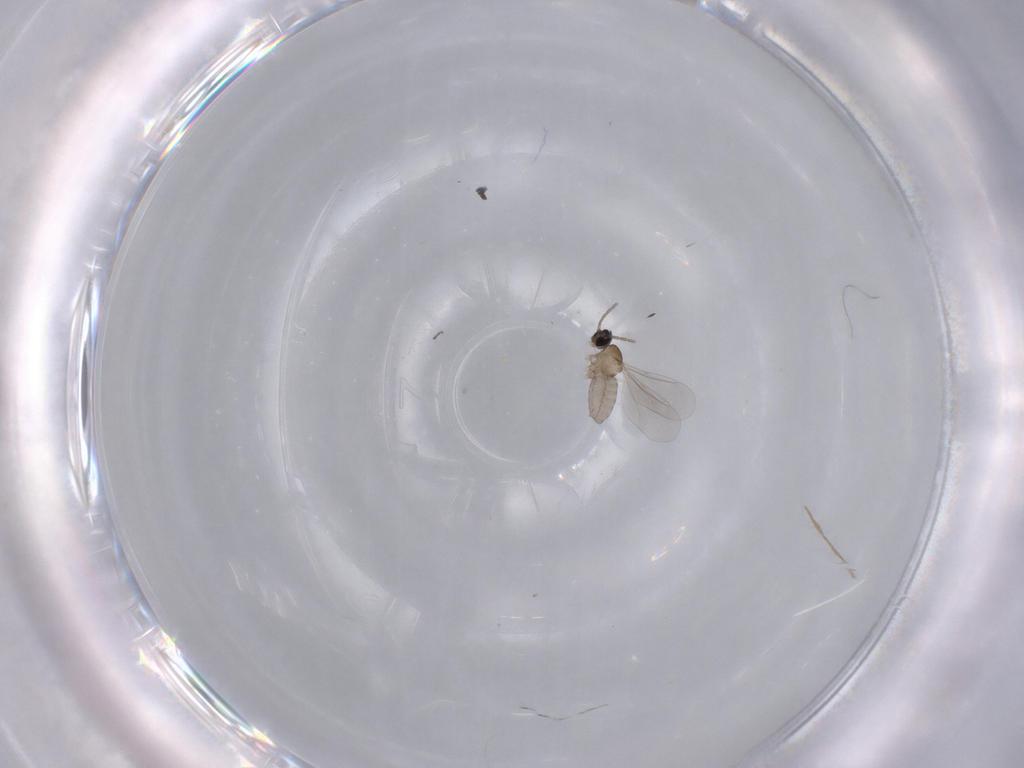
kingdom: Animalia
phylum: Arthropoda
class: Insecta
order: Diptera
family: Cecidomyiidae
